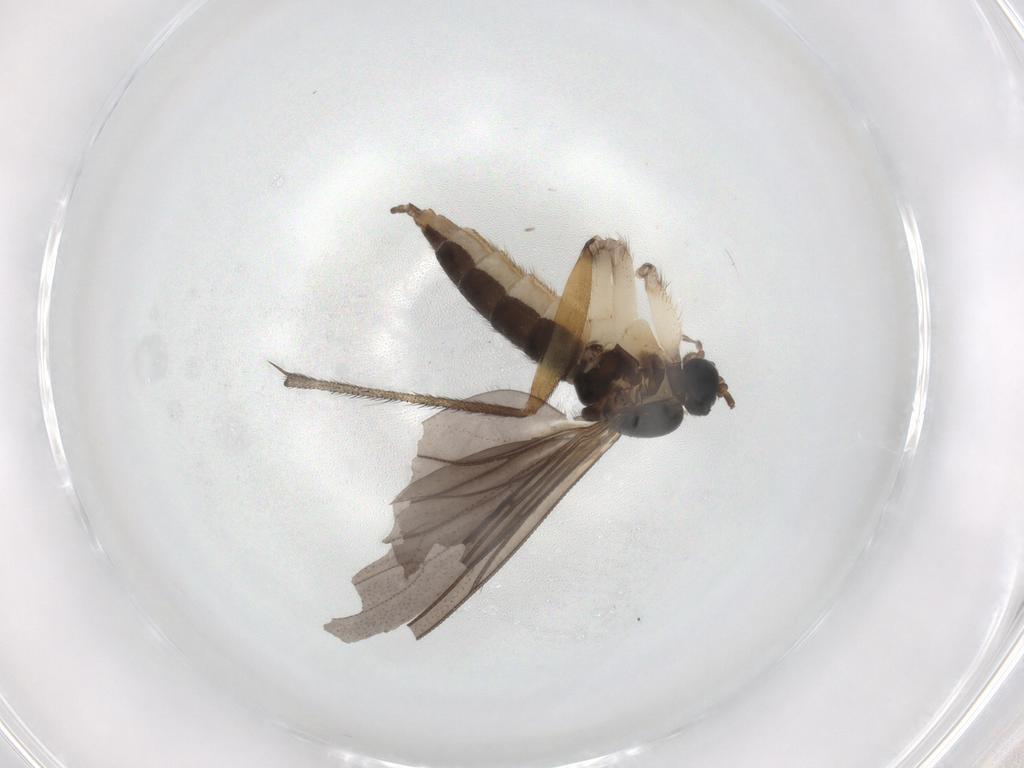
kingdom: Animalia
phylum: Arthropoda
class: Insecta
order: Diptera
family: Sciaridae
